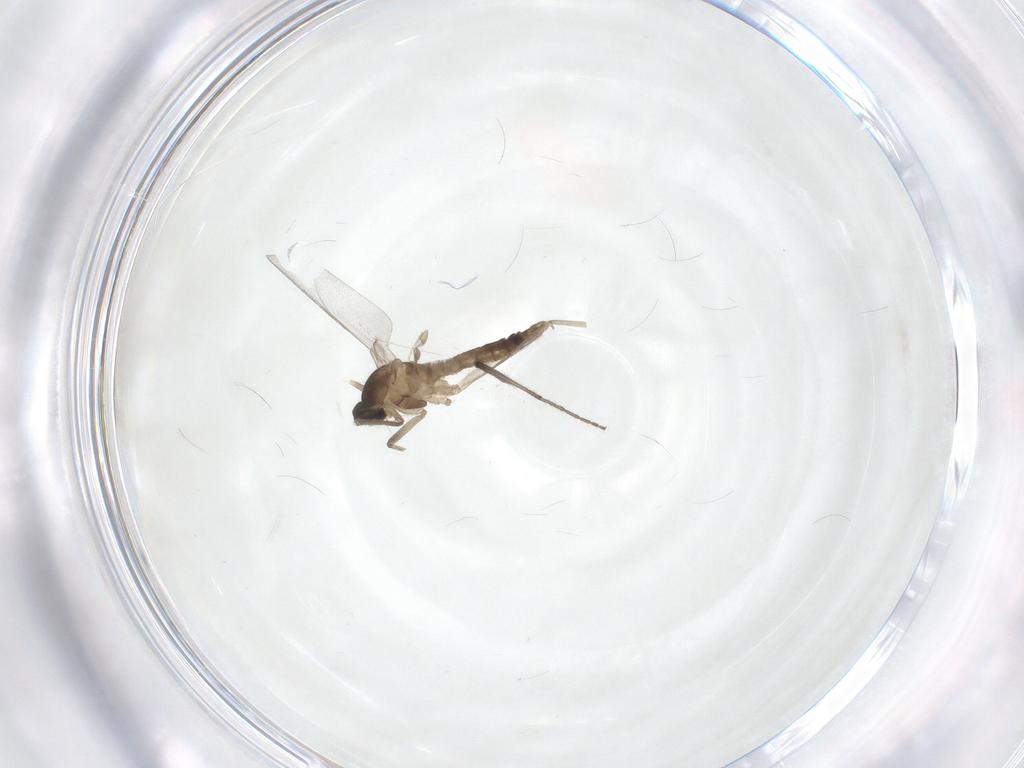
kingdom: Animalia
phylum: Arthropoda
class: Insecta
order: Diptera
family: Cecidomyiidae
